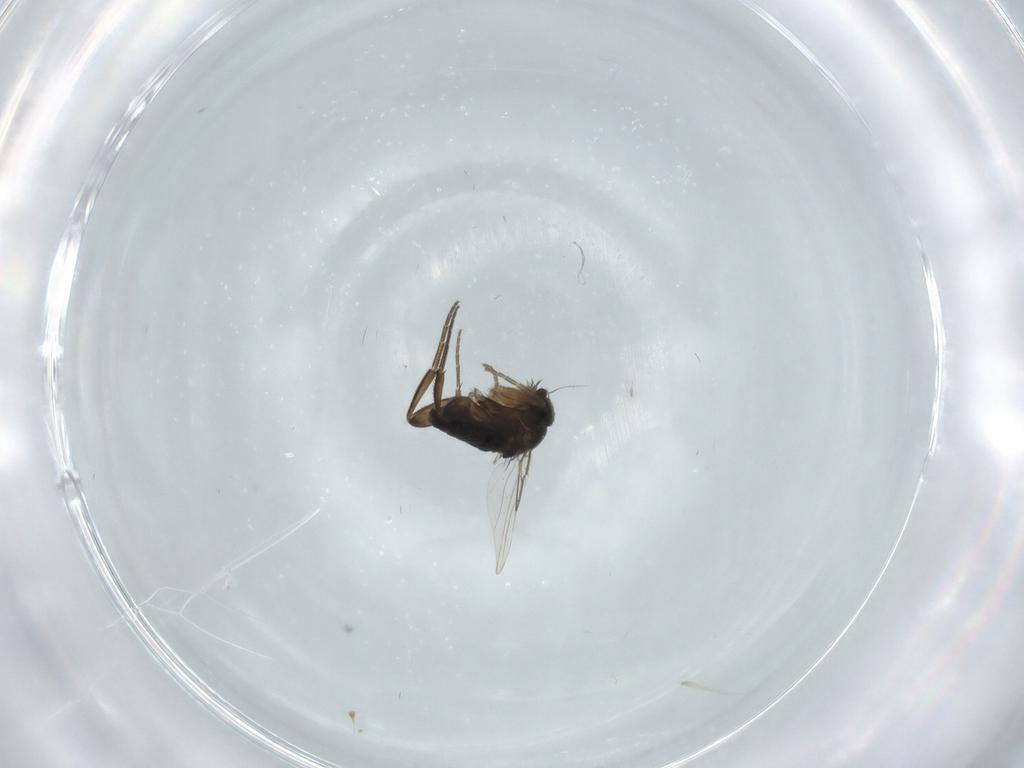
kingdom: Animalia
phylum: Arthropoda
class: Insecta
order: Diptera
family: Phoridae
